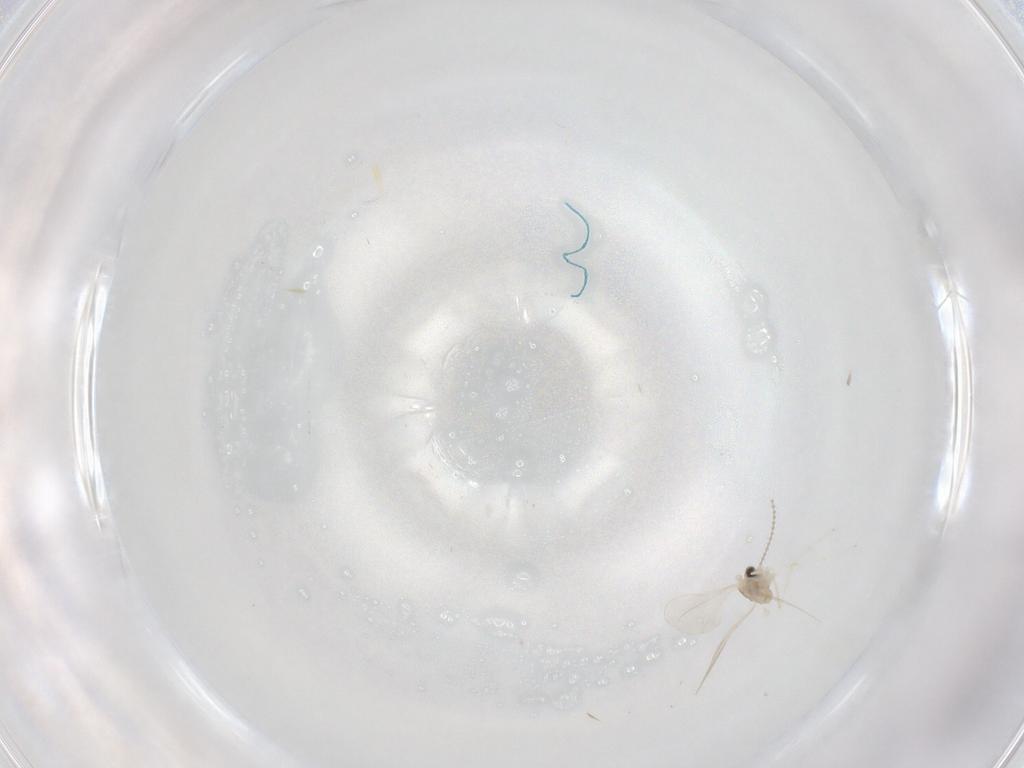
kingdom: Animalia
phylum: Arthropoda
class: Insecta
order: Diptera
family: Cecidomyiidae
